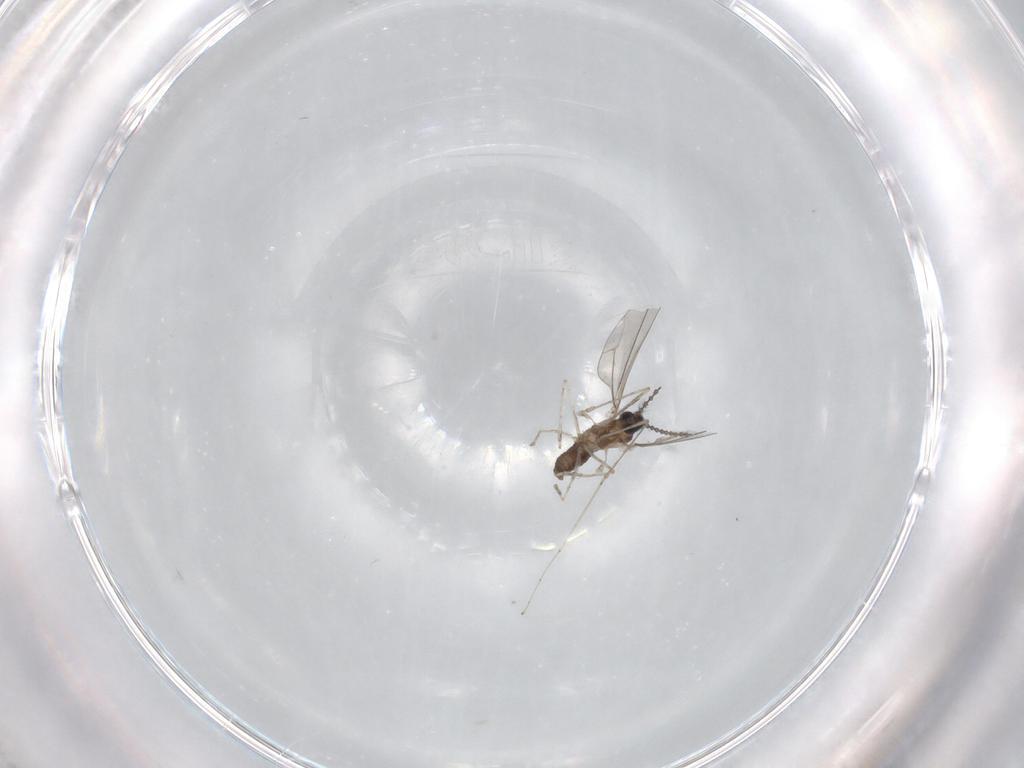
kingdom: Animalia
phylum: Arthropoda
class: Insecta
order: Diptera
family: Cecidomyiidae
